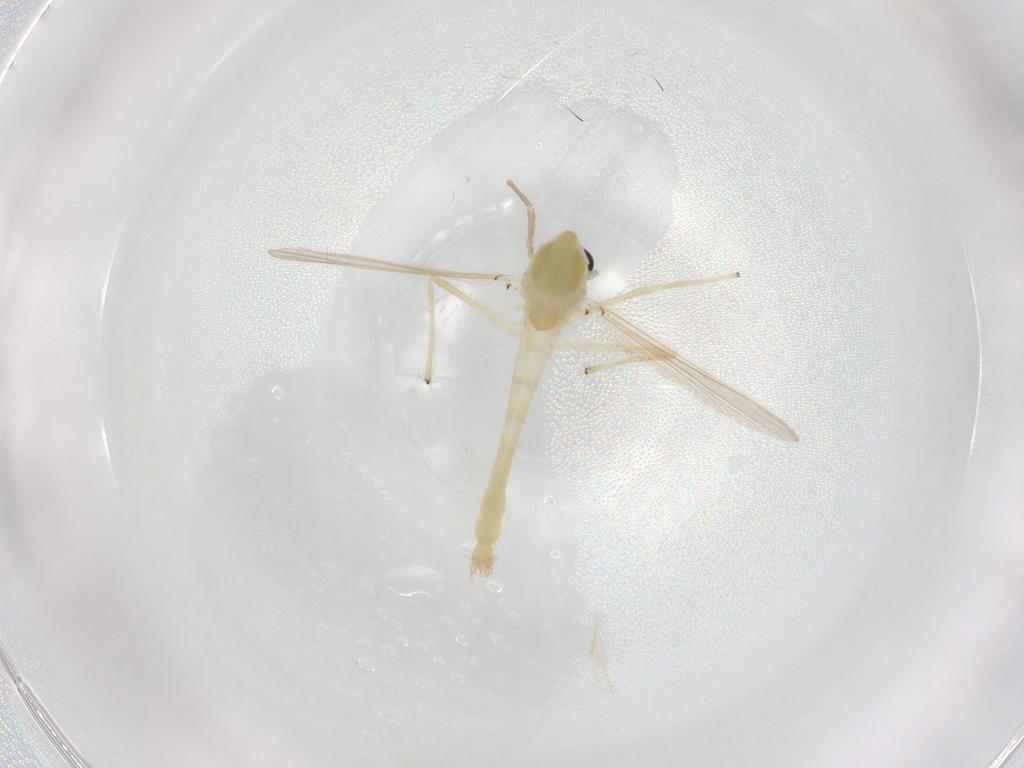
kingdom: Animalia
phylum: Arthropoda
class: Insecta
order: Diptera
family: Chironomidae
